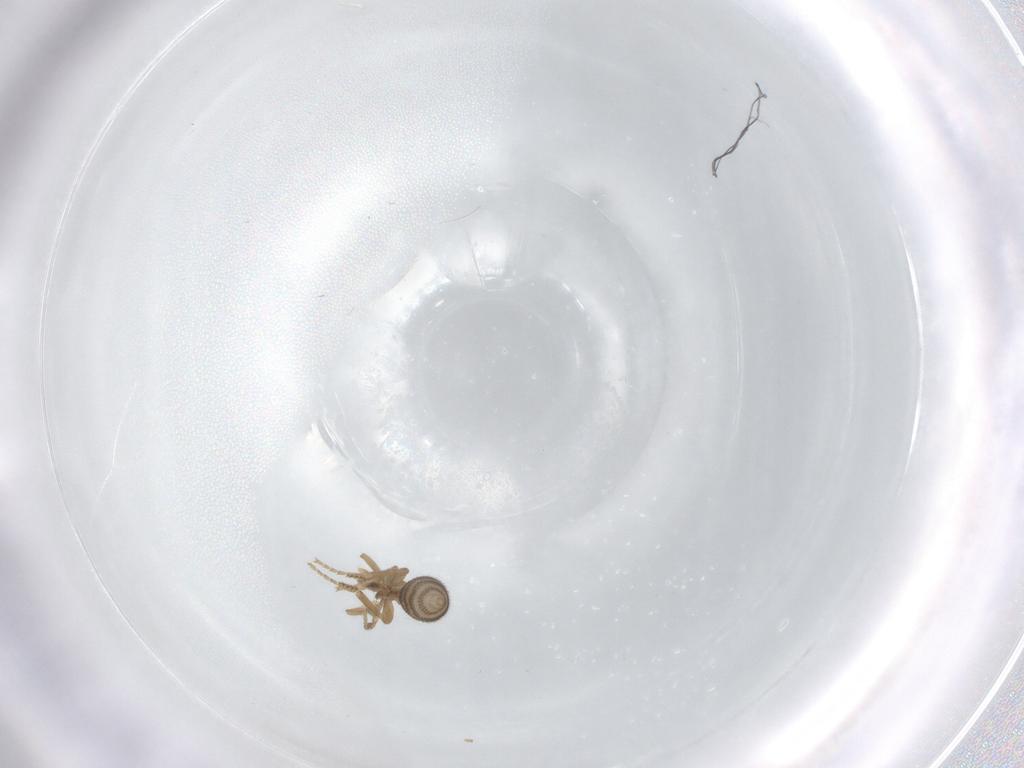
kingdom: Animalia
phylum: Arthropoda
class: Insecta
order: Diptera
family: Phoridae
